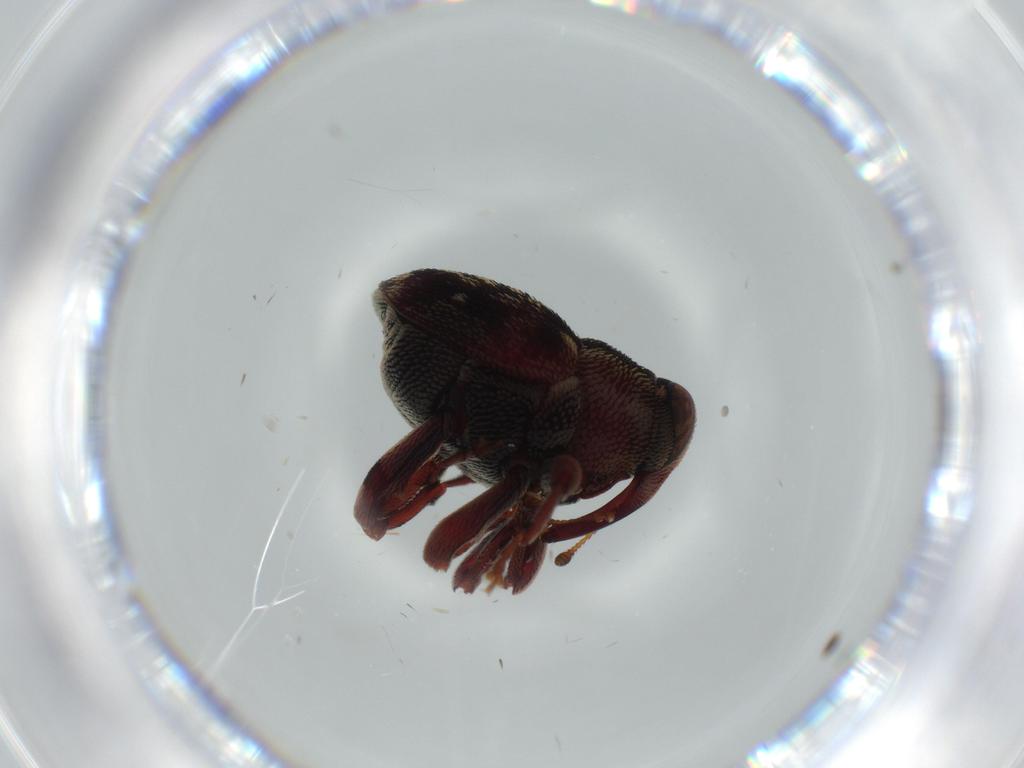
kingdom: Animalia
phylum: Arthropoda
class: Insecta
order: Coleoptera
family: Curculionidae
